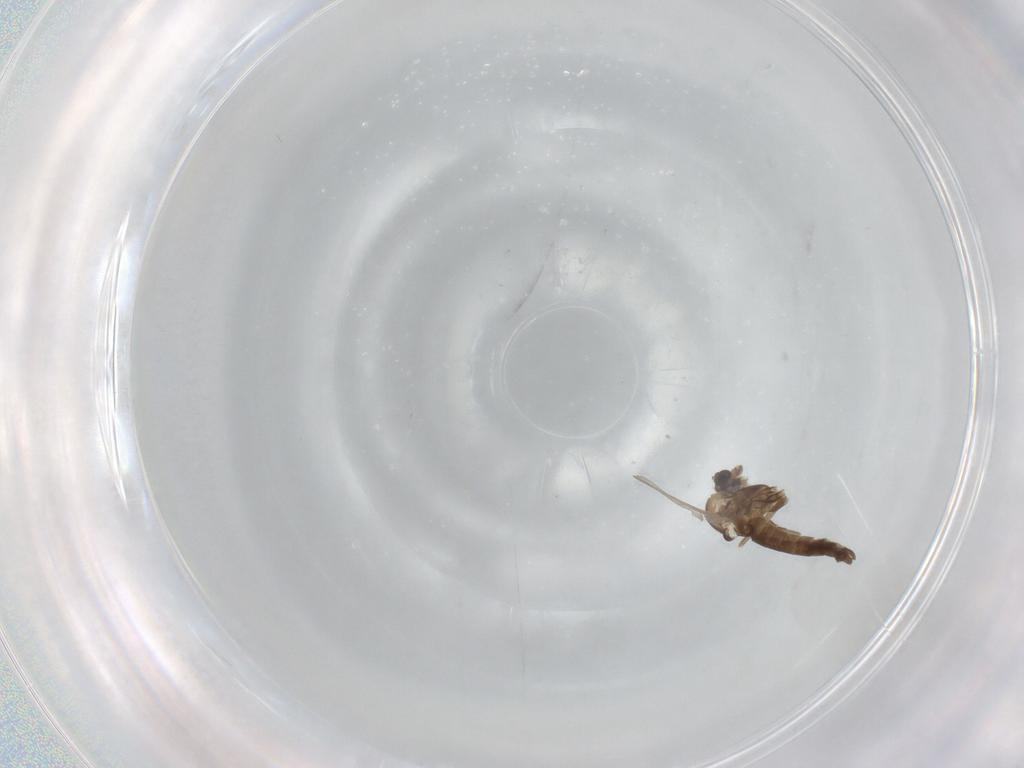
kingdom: Animalia
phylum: Arthropoda
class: Insecta
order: Diptera
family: Chironomidae
